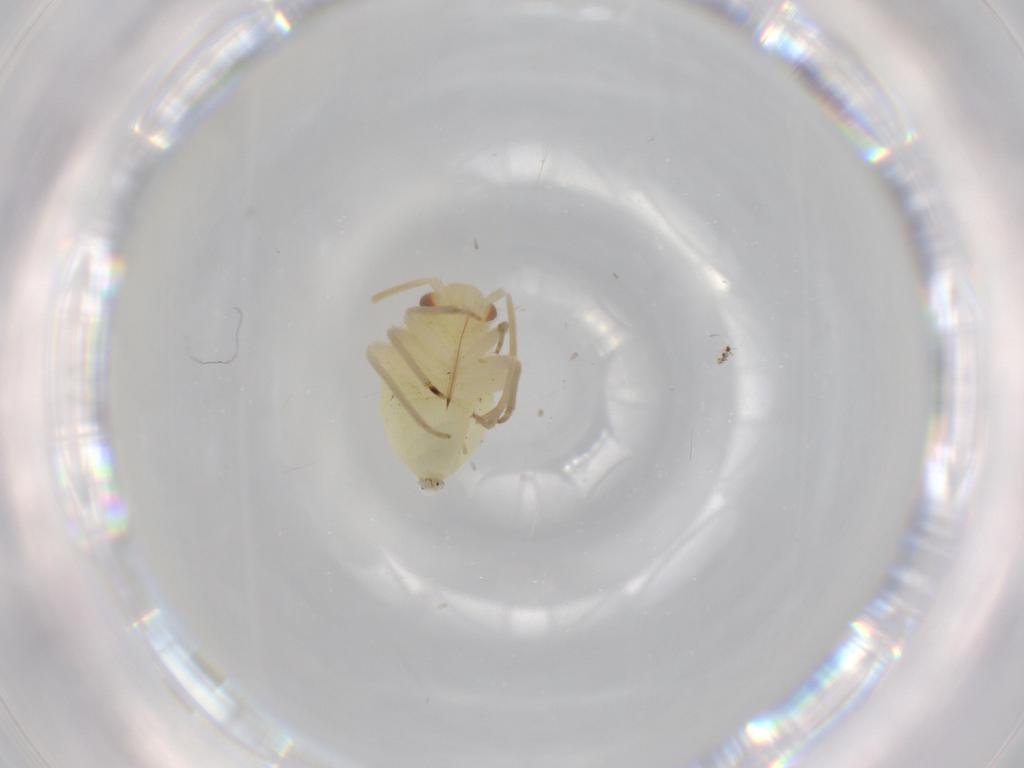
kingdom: Animalia
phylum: Arthropoda
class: Insecta
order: Hemiptera
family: Miridae
